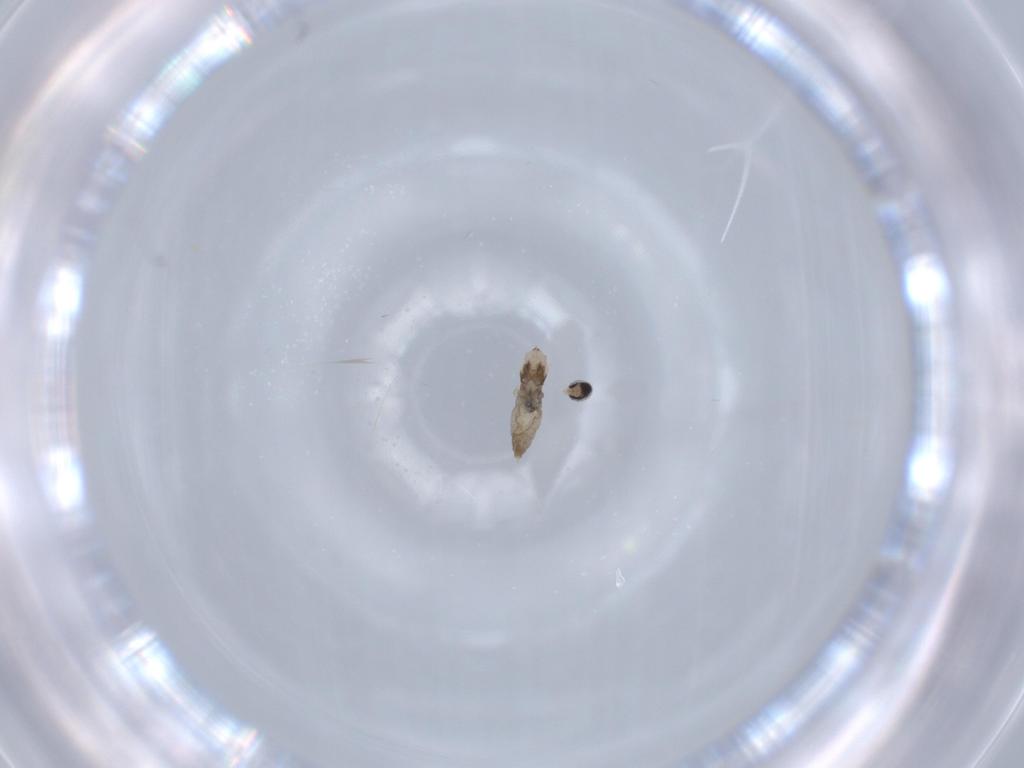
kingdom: Animalia
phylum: Arthropoda
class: Insecta
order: Diptera
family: Cecidomyiidae
